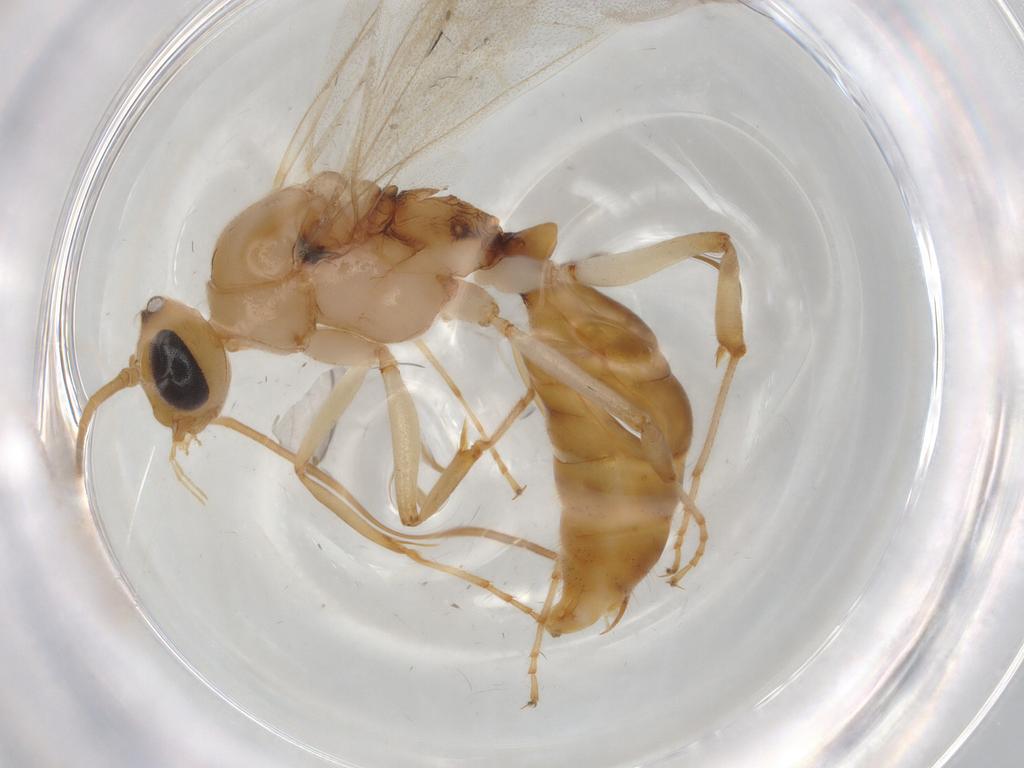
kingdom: Animalia
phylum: Arthropoda
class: Insecta
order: Hymenoptera
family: Formicidae
